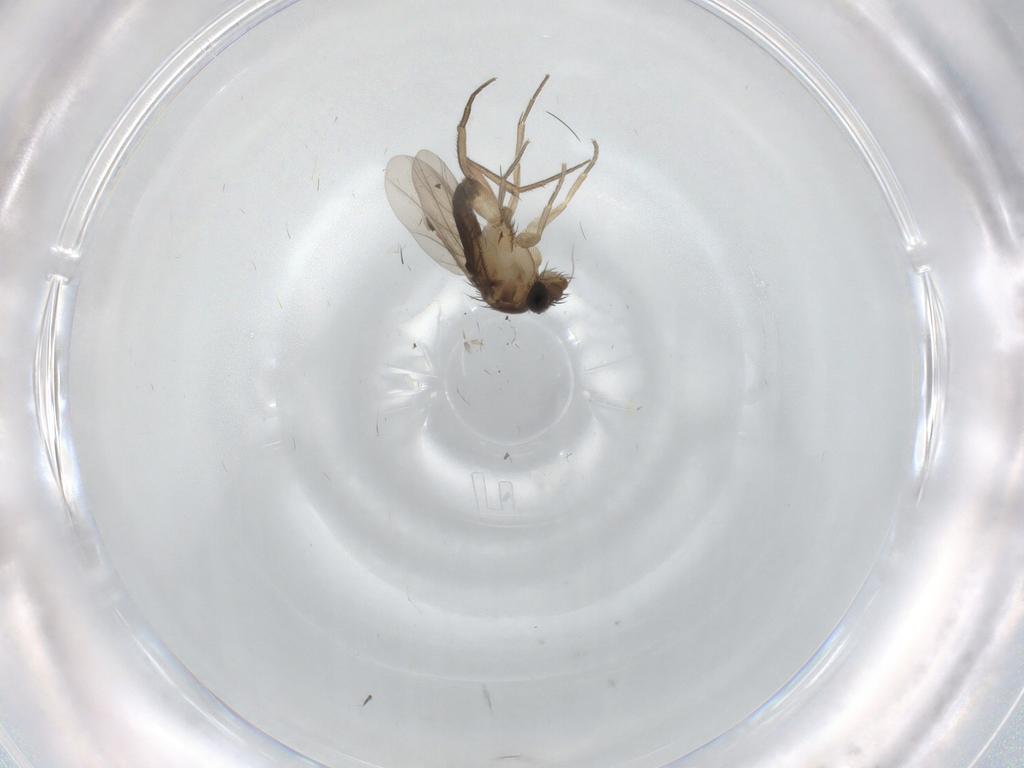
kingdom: Animalia
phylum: Arthropoda
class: Insecta
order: Diptera
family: Phoridae
